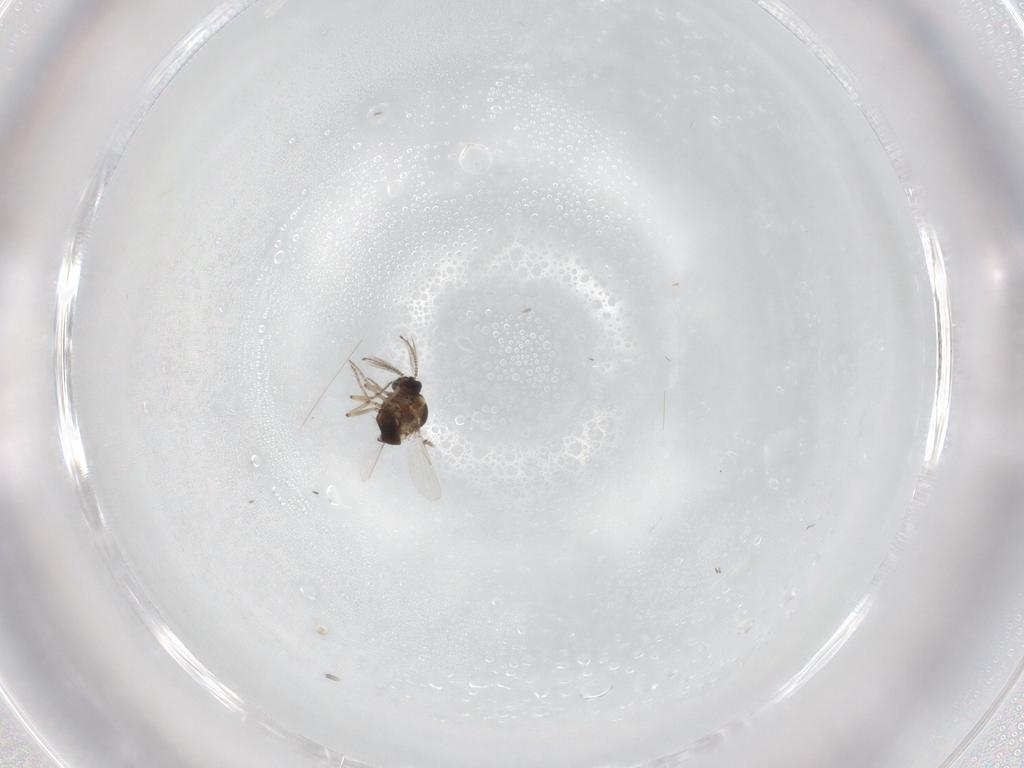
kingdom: Animalia
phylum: Arthropoda
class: Insecta
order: Diptera
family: Ceratopogonidae
